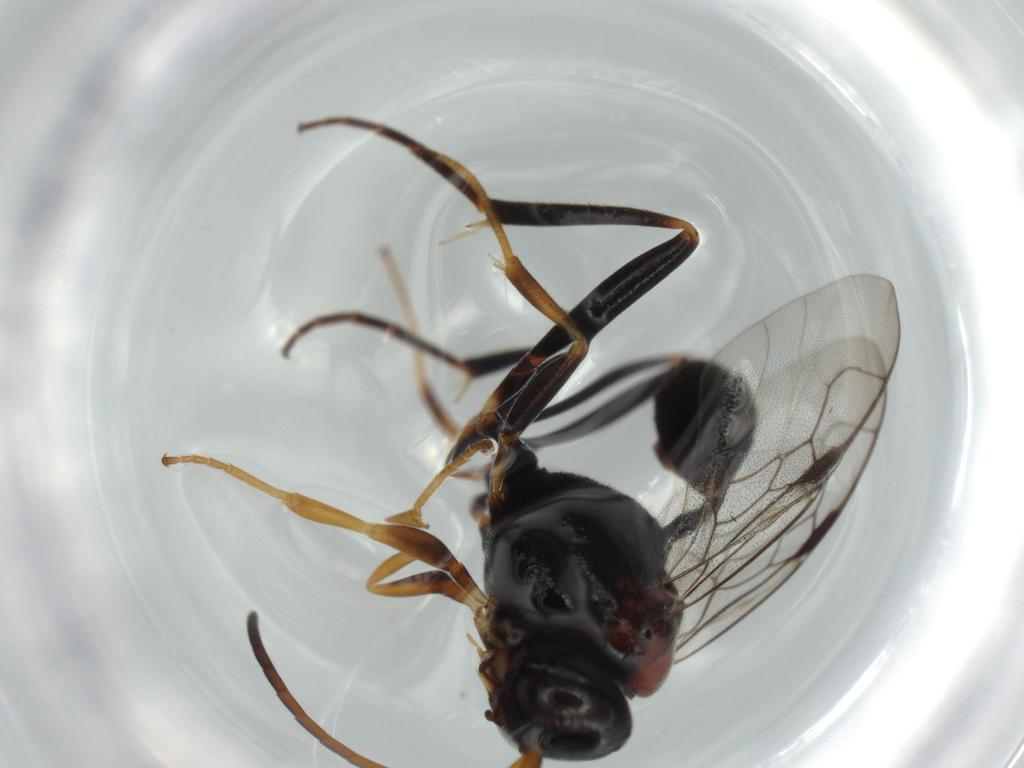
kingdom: Animalia
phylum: Arthropoda
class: Insecta
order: Hymenoptera
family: Evaniidae
